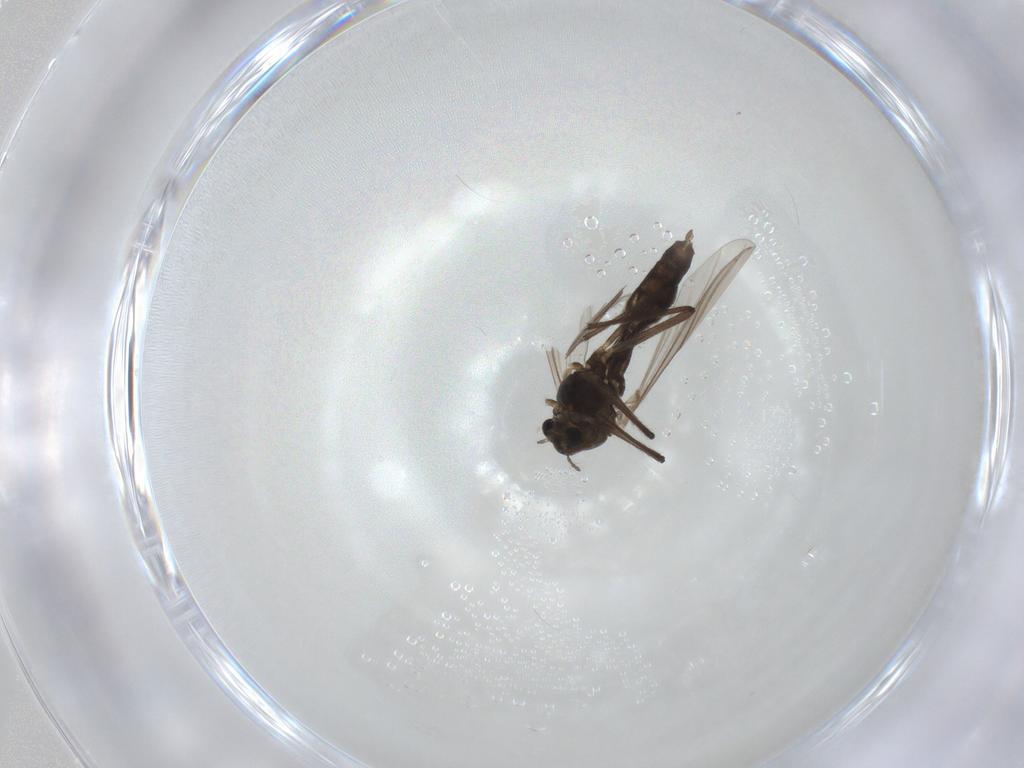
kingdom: Animalia
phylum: Arthropoda
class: Insecta
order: Diptera
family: Chironomidae
